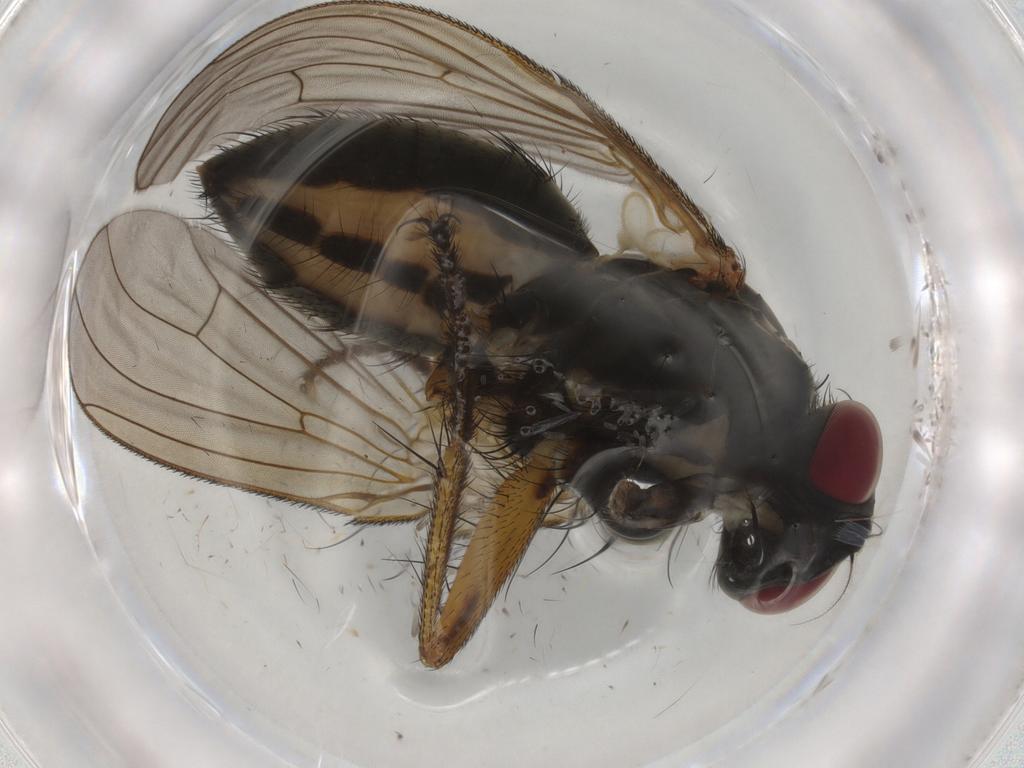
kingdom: Animalia
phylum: Arthropoda
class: Insecta
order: Diptera
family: Muscidae
